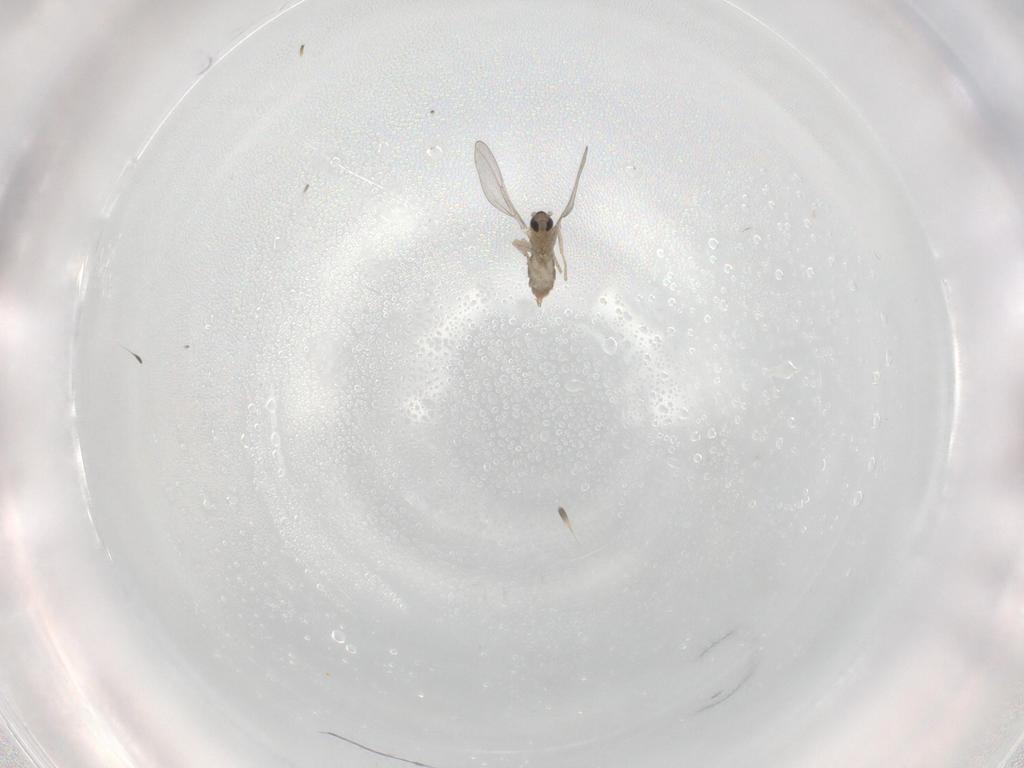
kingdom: Animalia
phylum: Arthropoda
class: Insecta
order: Diptera
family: Cecidomyiidae
